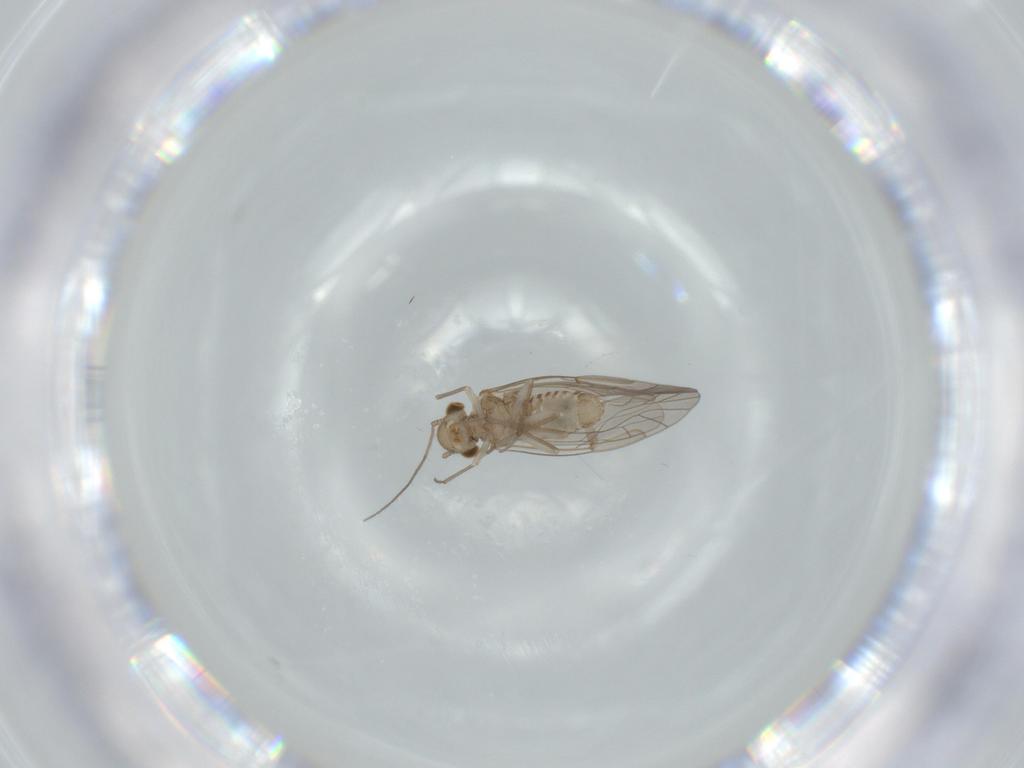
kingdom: Animalia
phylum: Arthropoda
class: Insecta
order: Psocodea
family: Lachesillidae
